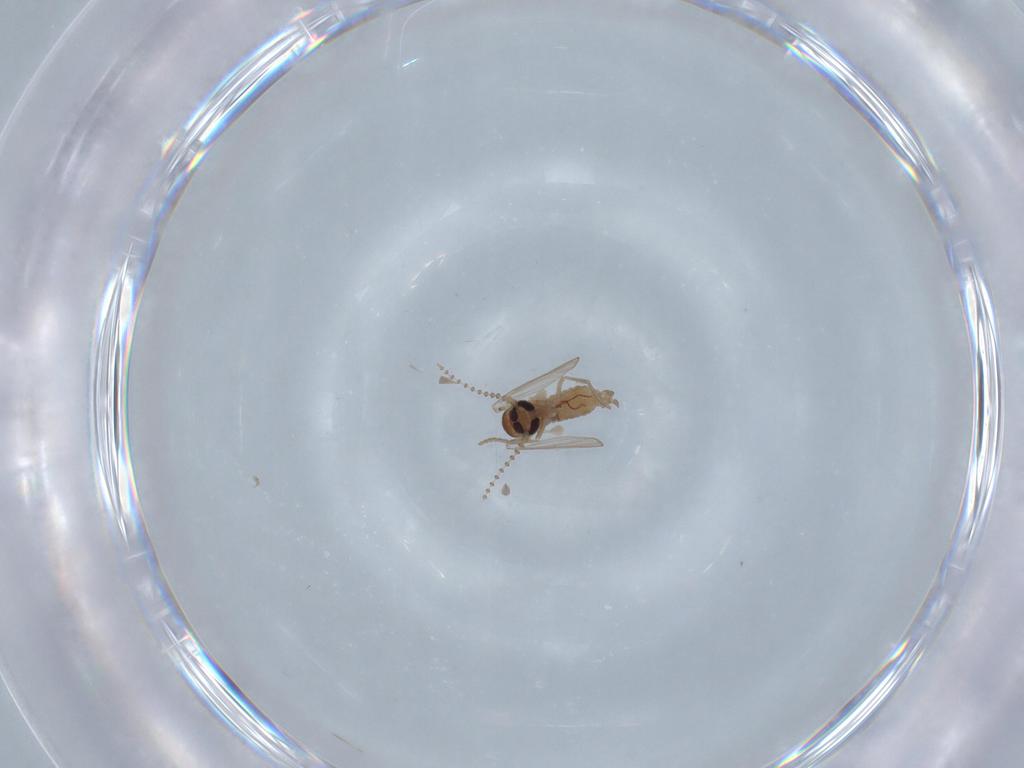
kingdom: Animalia
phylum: Arthropoda
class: Insecta
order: Diptera
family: Psychodidae
